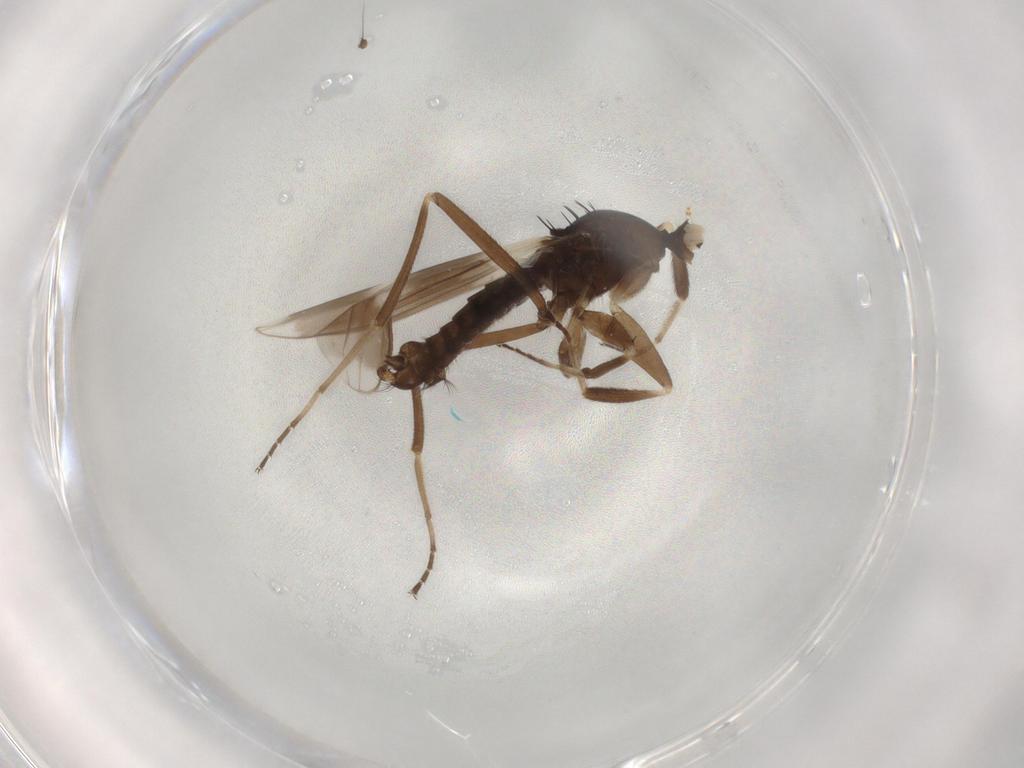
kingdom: Animalia
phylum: Arthropoda
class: Insecta
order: Diptera
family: Hybotidae
